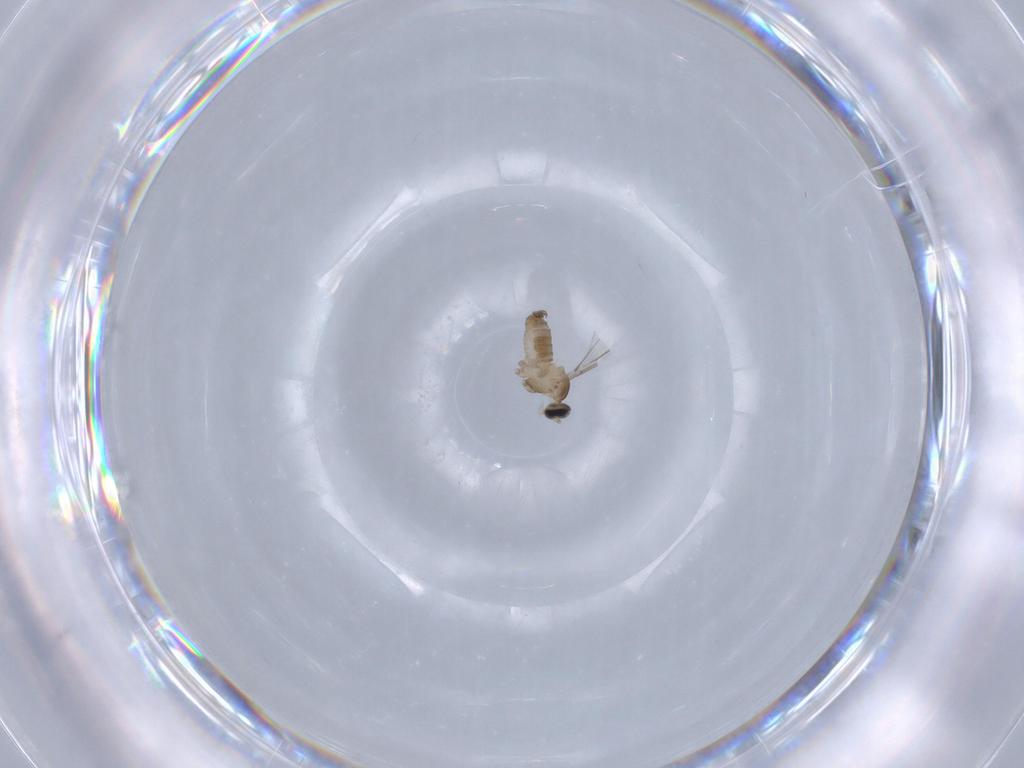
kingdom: Animalia
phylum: Arthropoda
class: Insecta
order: Diptera
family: Cecidomyiidae
